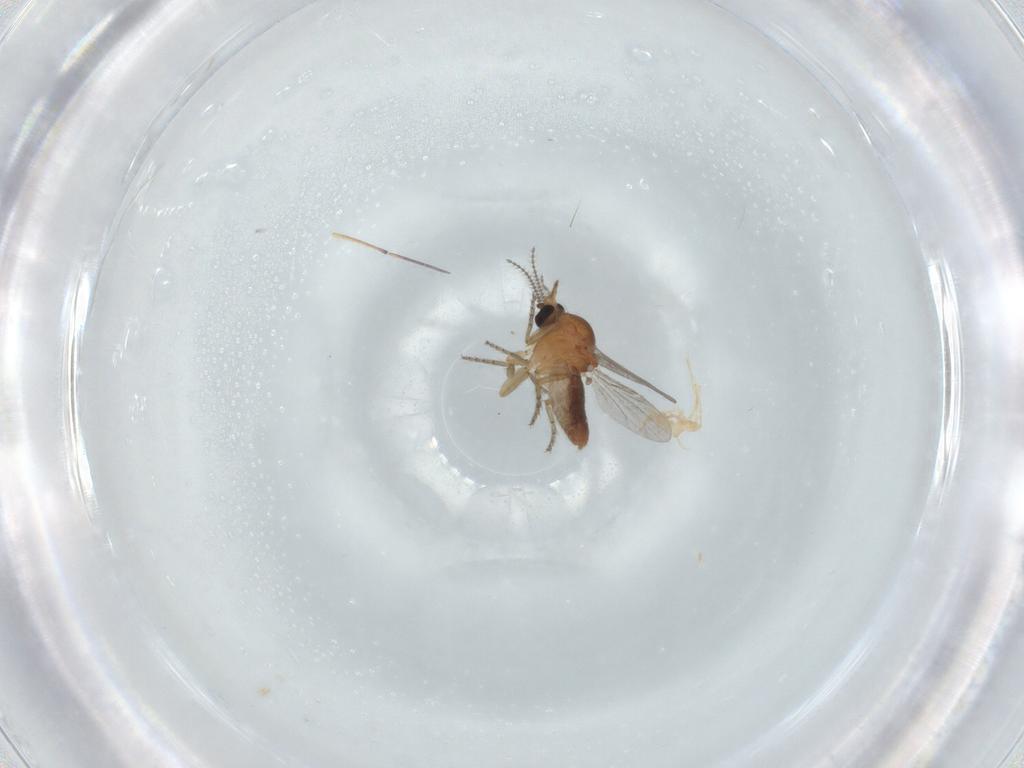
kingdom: Animalia
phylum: Arthropoda
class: Insecta
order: Diptera
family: Ceratopogonidae
